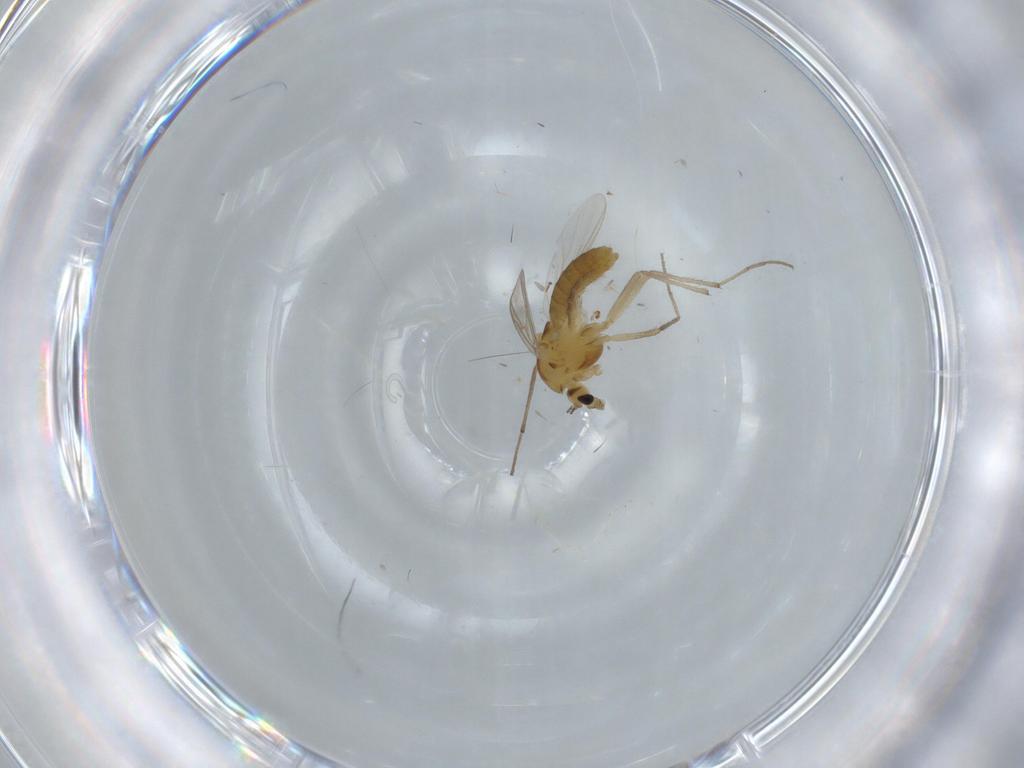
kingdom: Animalia
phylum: Arthropoda
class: Insecta
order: Diptera
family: Chironomidae
